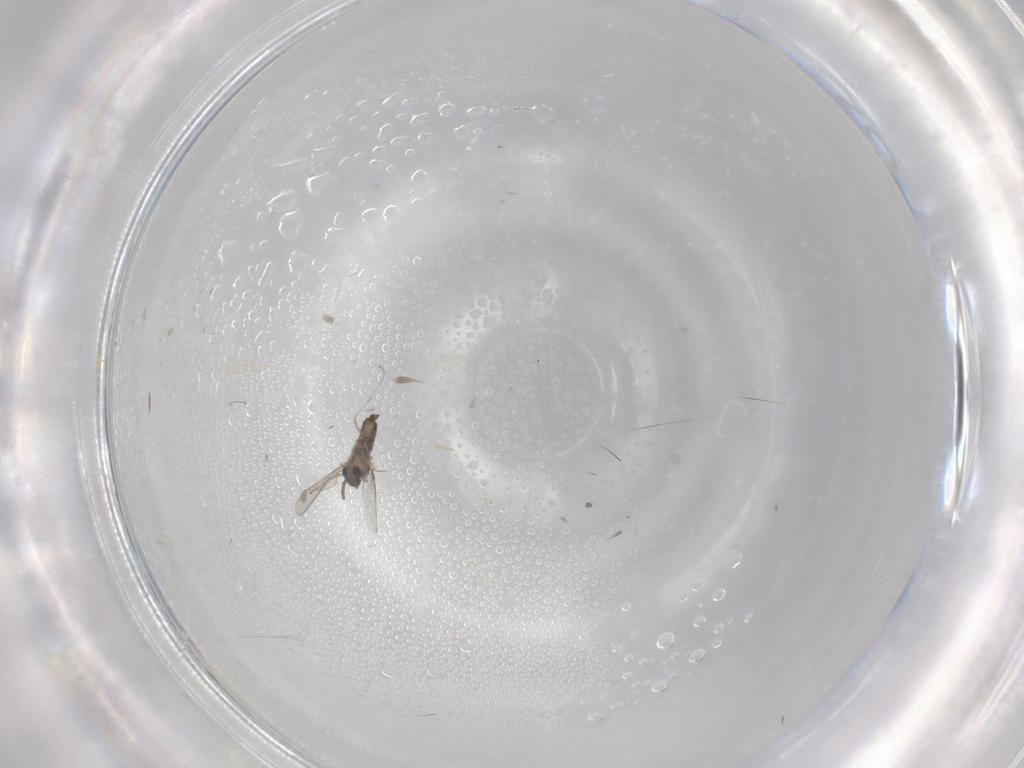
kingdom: Animalia
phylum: Arthropoda
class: Insecta
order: Diptera
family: Cecidomyiidae
